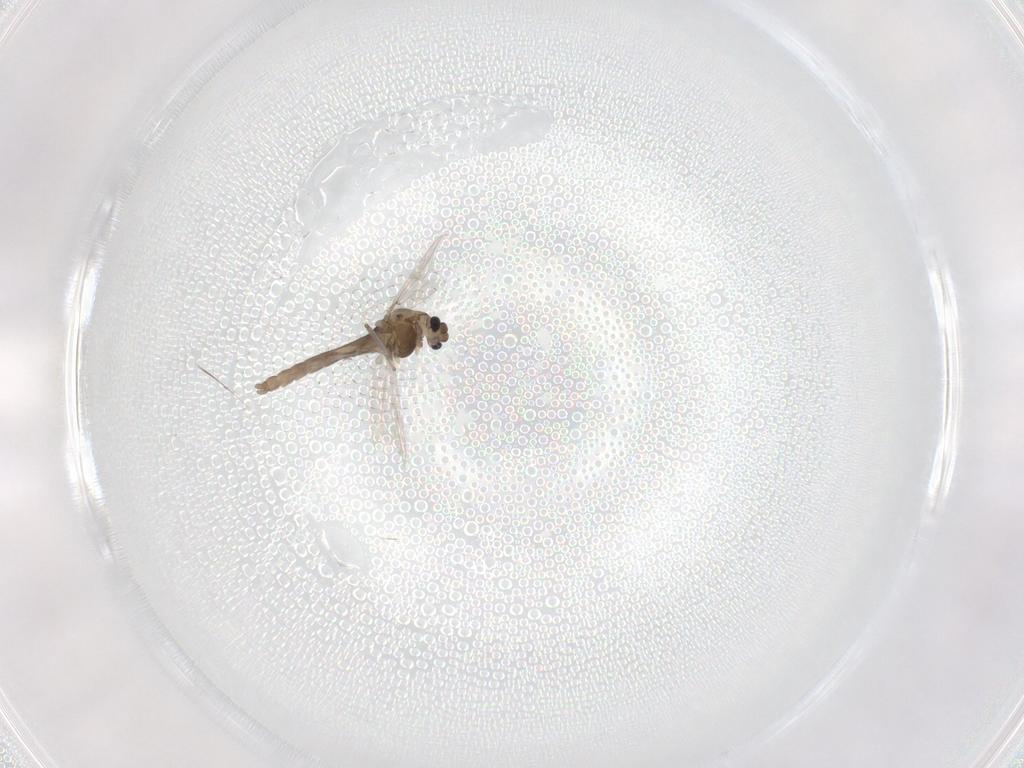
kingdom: Animalia
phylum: Arthropoda
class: Insecta
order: Diptera
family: Chironomidae
